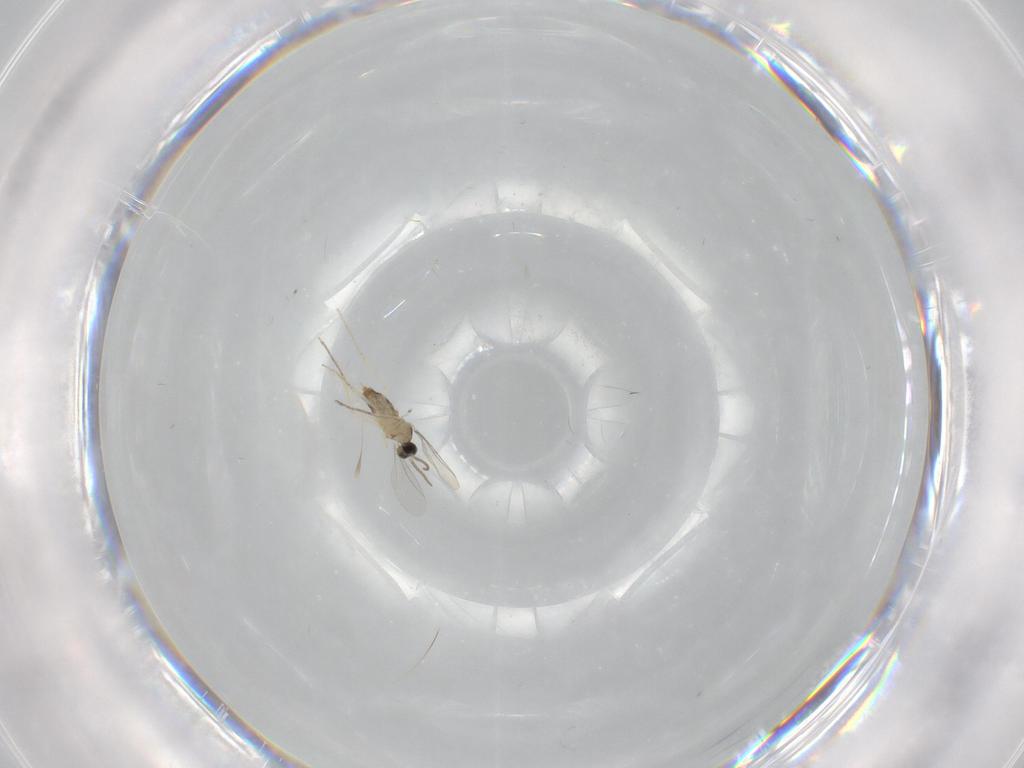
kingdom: Animalia
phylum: Arthropoda
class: Insecta
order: Diptera
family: Cecidomyiidae
